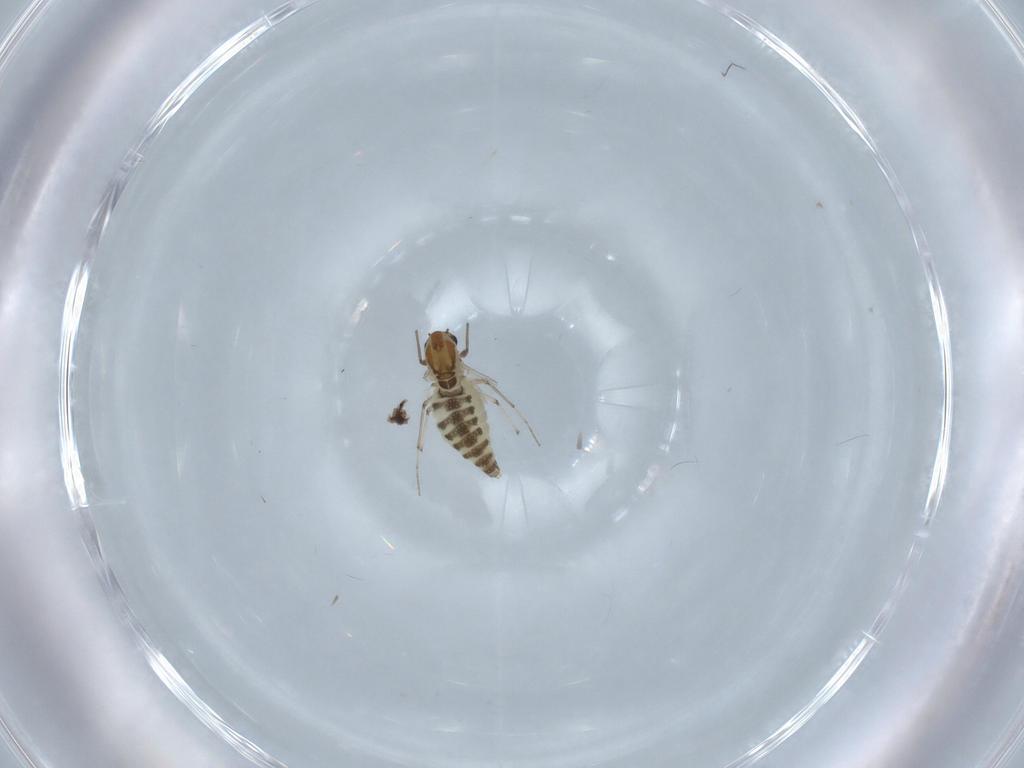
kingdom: Animalia
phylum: Arthropoda
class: Insecta
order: Diptera
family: Chironomidae
